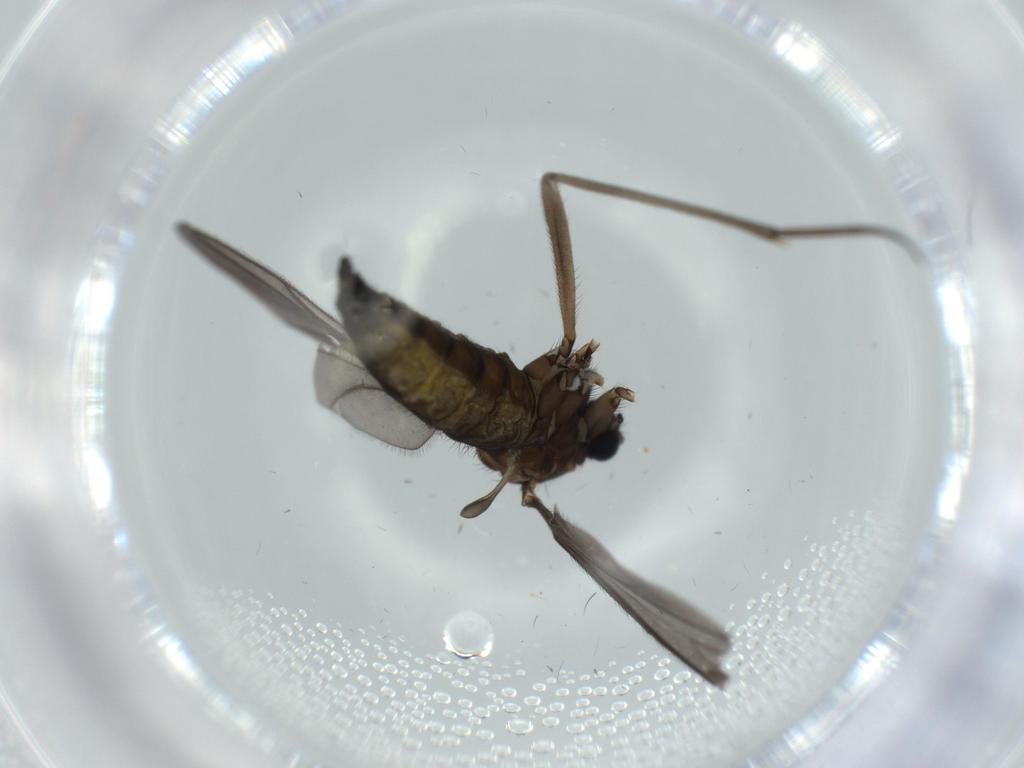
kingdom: Animalia
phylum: Arthropoda
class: Insecta
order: Diptera
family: Sciaridae
